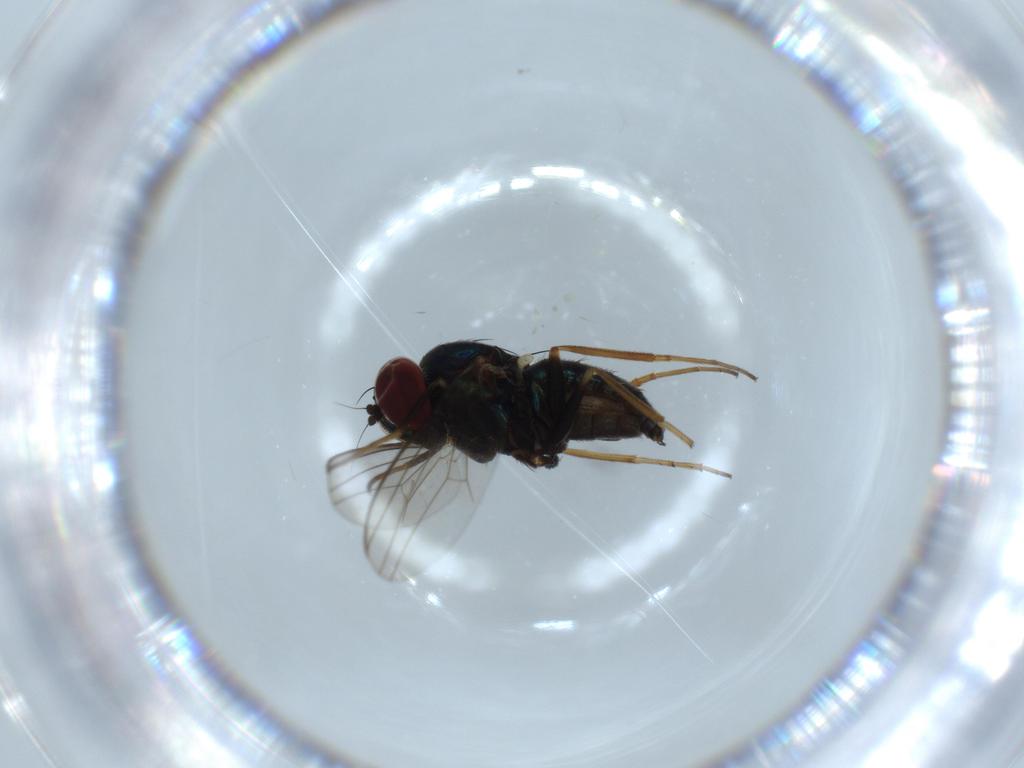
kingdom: Animalia
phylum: Arthropoda
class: Insecta
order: Diptera
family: Dolichopodidae
